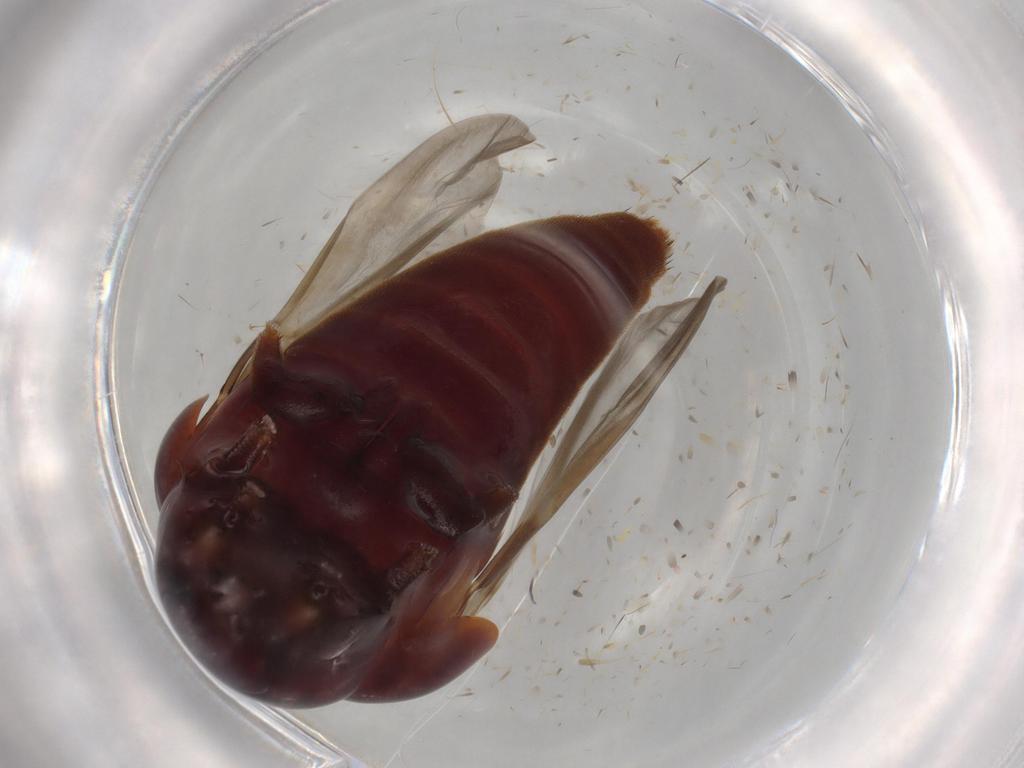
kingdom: Animalia
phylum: Arthropoda
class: Insecta
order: Coleoptera
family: Staphylinidae
